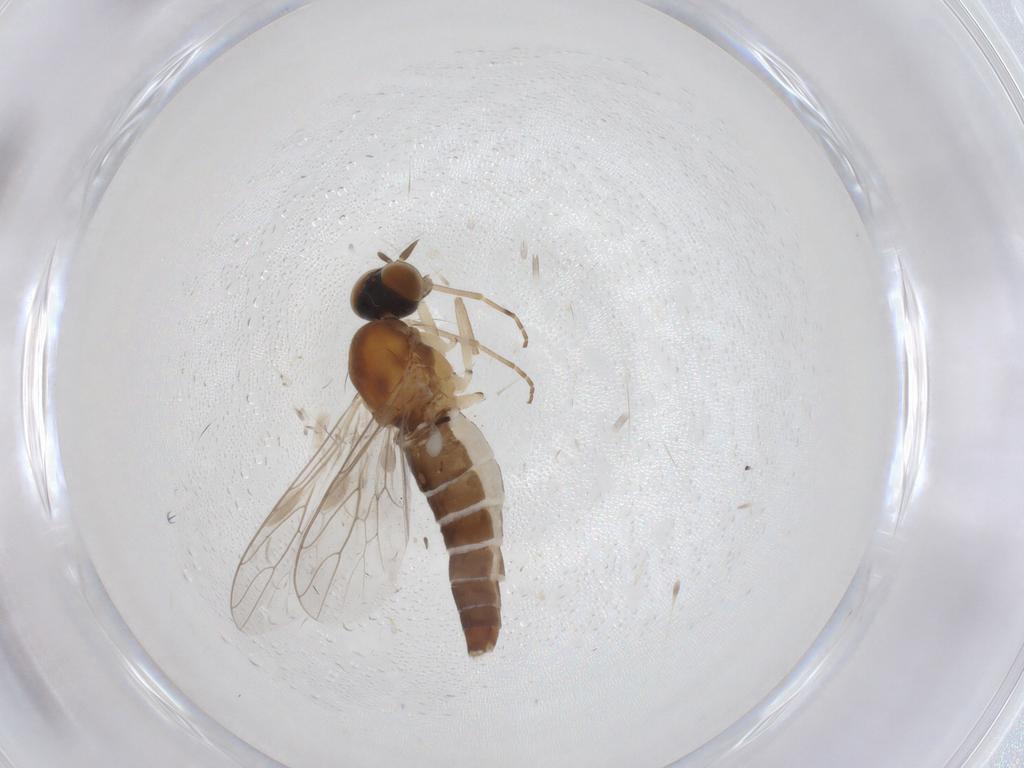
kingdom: Animalia
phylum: Arthropoda
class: Insecta
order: Diptera
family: Scenopinidae
